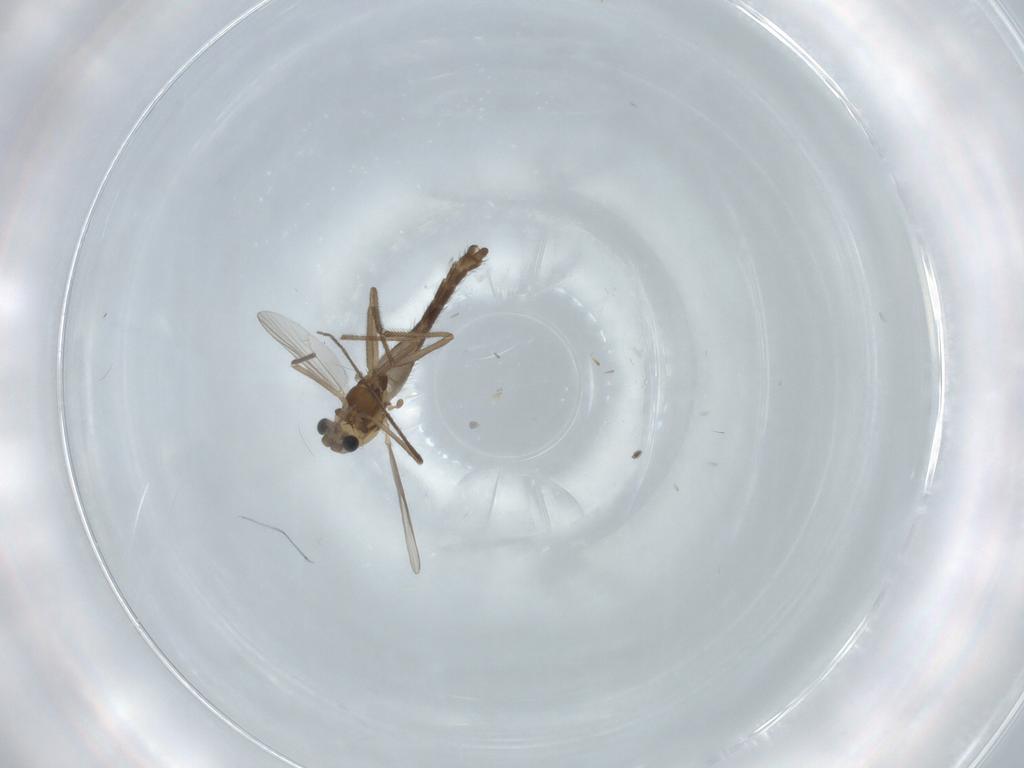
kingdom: Animalia
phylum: Arthropoda
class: Insecta
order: Diptera
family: Chironomidae
